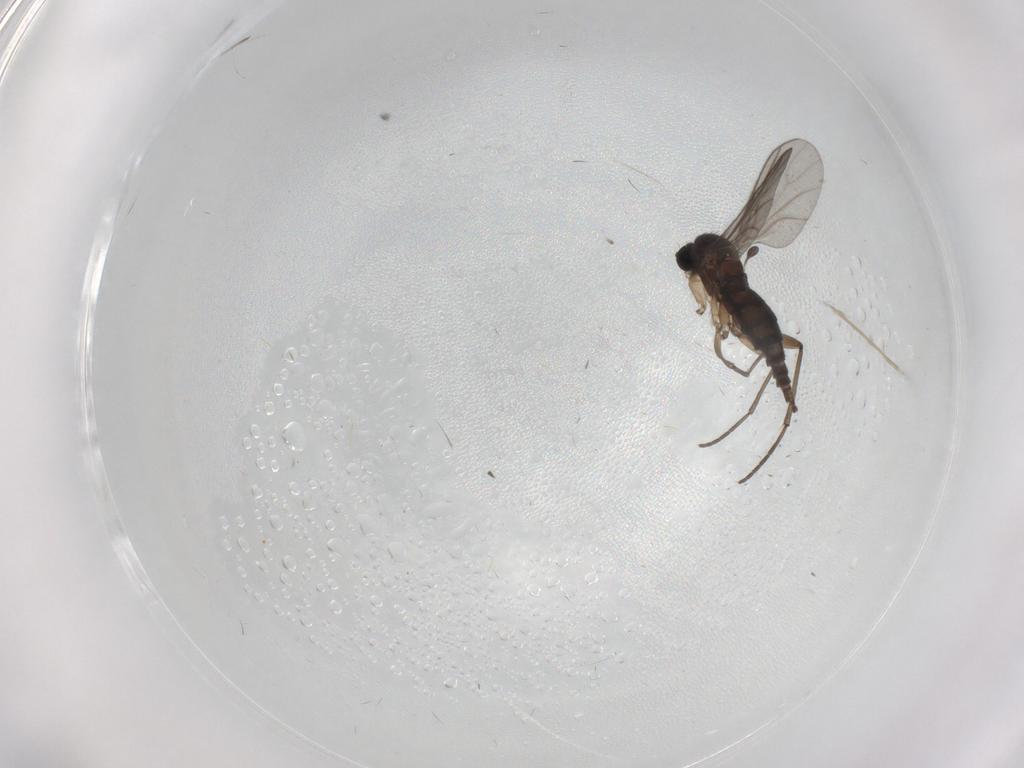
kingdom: Animalia
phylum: Arthropoda
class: Insecta
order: Diptera
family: Sciaridae
